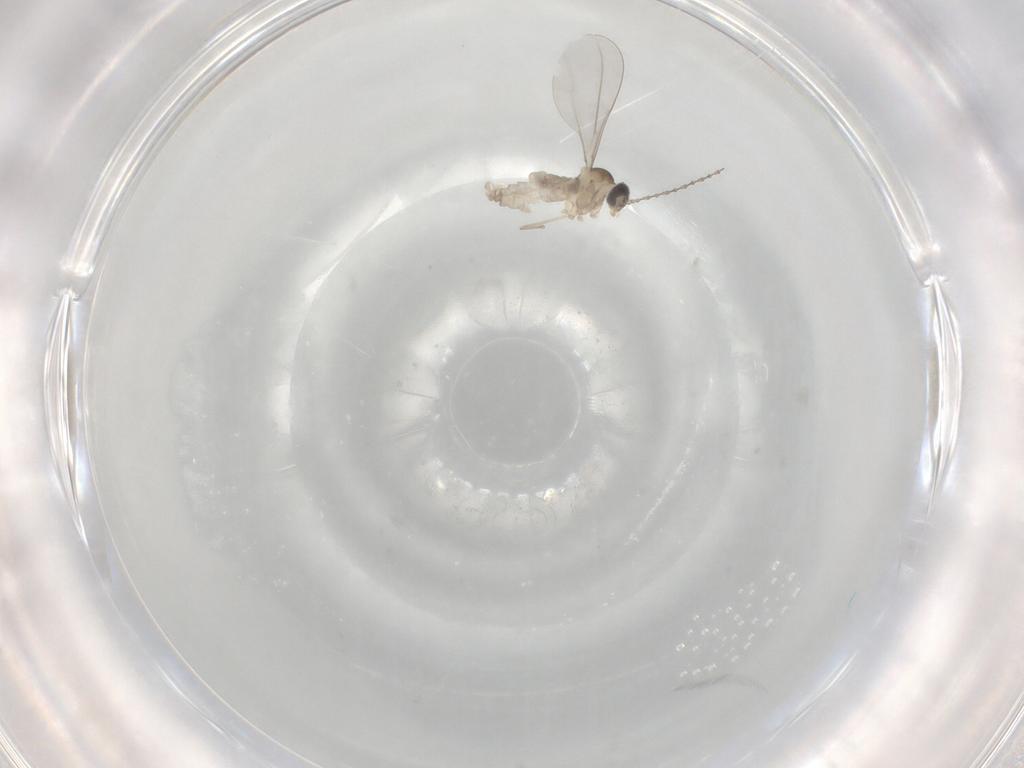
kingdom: Animalia
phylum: Arthropoda
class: Insecta
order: Diptera
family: Cecidomyiidae
